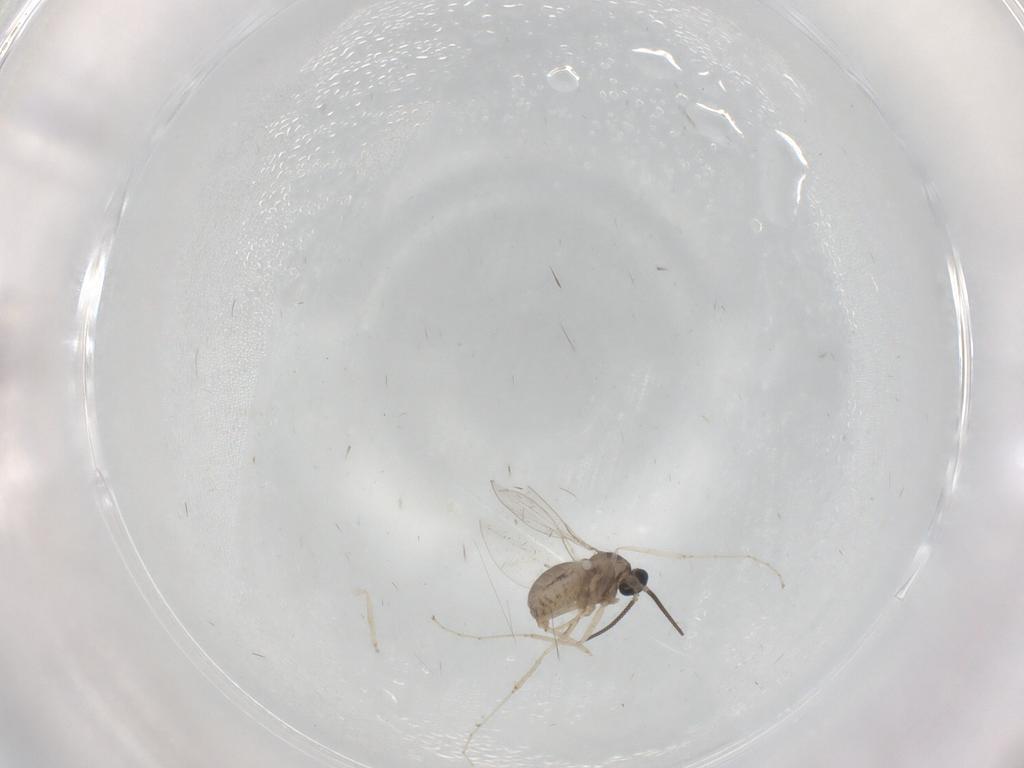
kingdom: Animalia
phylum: Arthropoda
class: Insecta
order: Diptera
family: Cecidomyiidae
